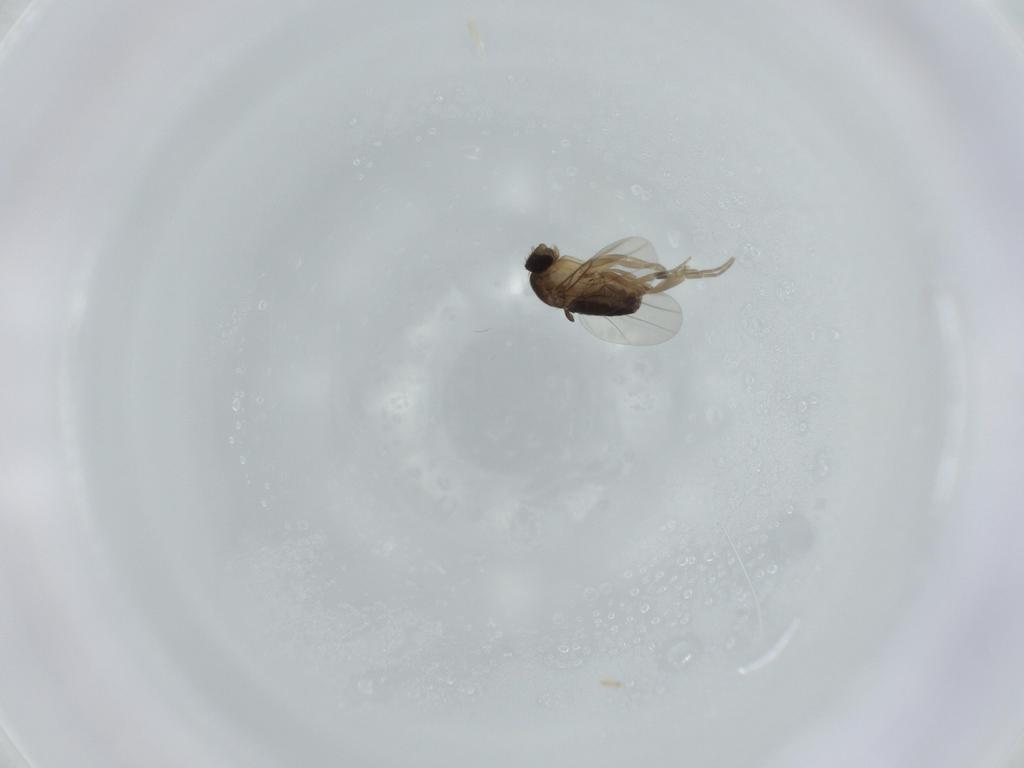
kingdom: Animalia
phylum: Arthropoda
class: Insecta
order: Diptera
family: Phoridae
